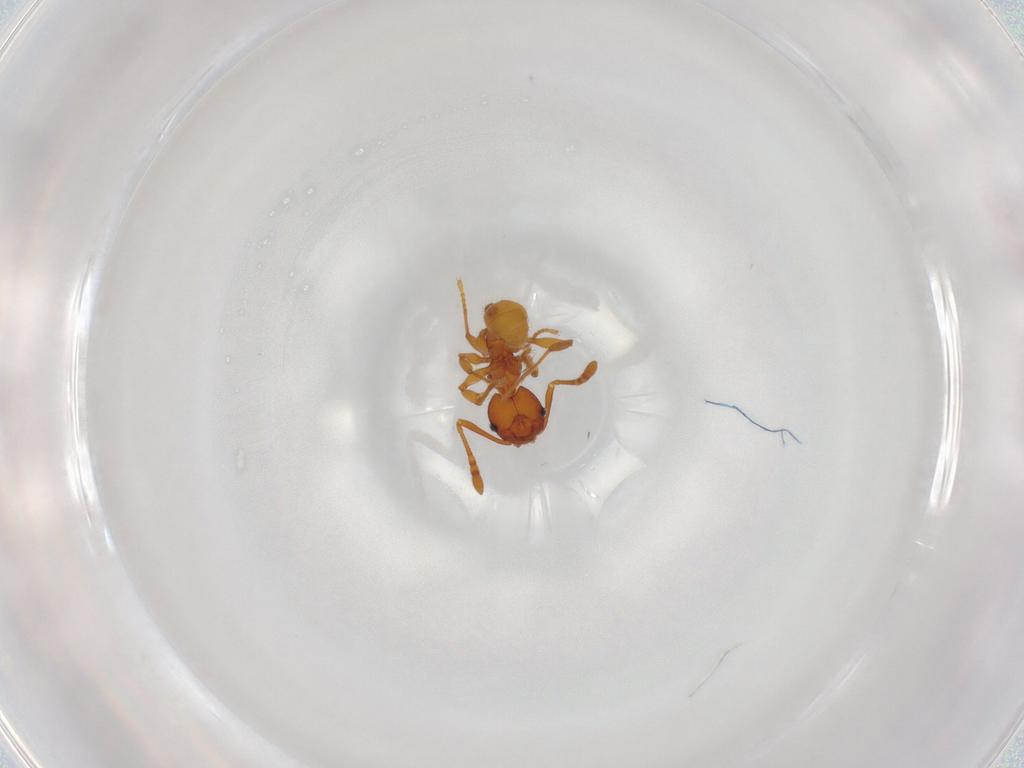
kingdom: Animalia
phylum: Arthropoda
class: Insecta
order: Hymenoptera
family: Formicidae
